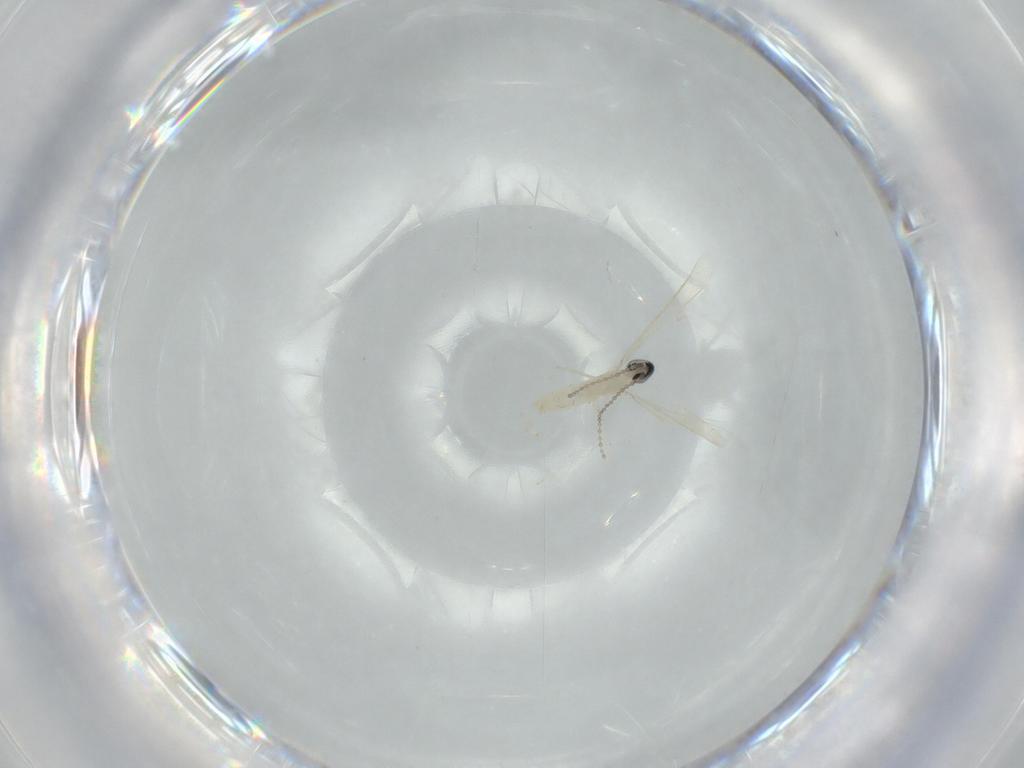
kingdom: Animalia
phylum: Arthropoda
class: Insecta
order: Diptera
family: Cecidomyiidae
